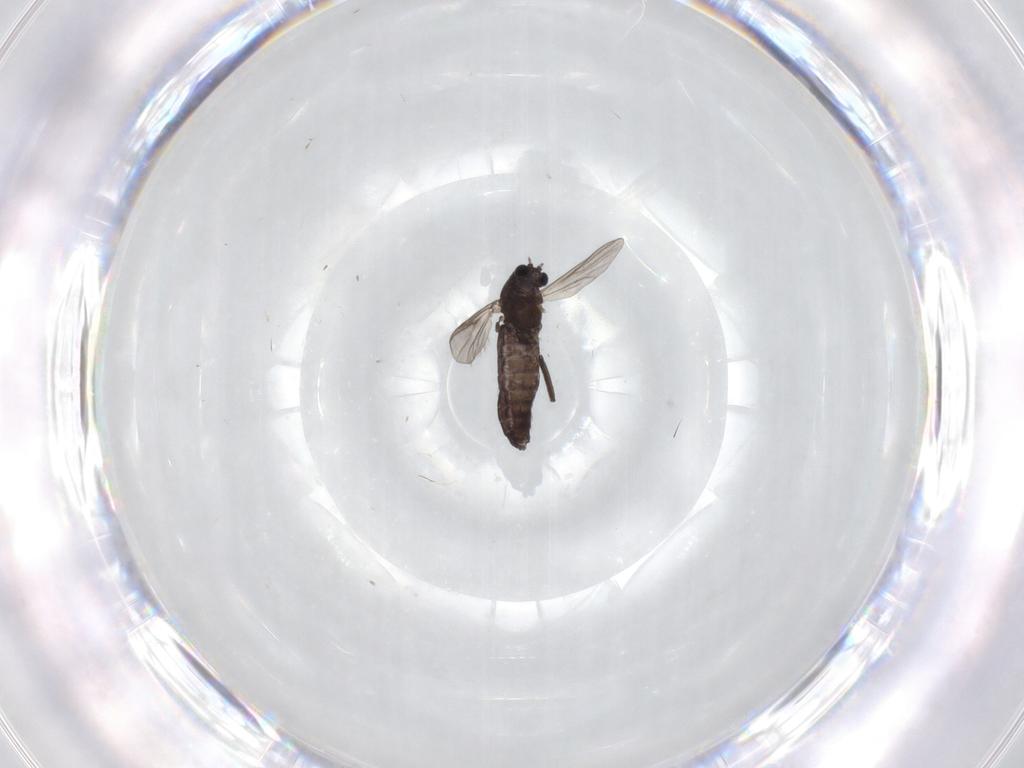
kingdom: Animalia
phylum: Arthropoda
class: Insecta
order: Diptera
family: Chironomidae
